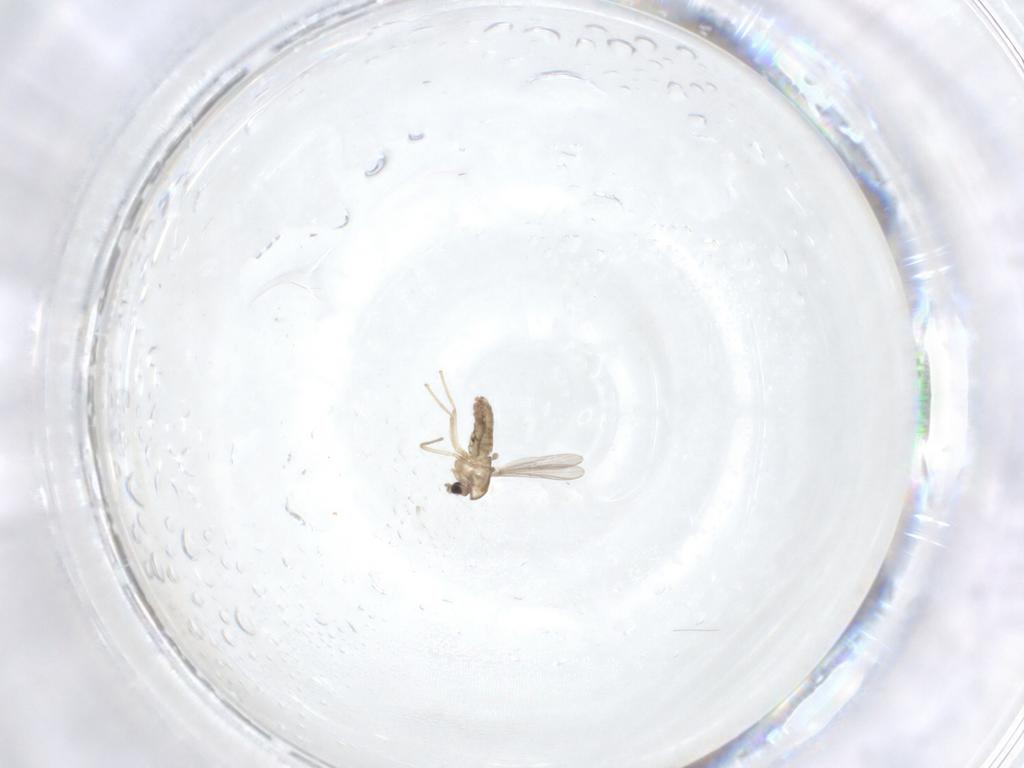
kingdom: Animalia
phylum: Arthropoda
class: Insecta
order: Diptera
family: Chironomidae
